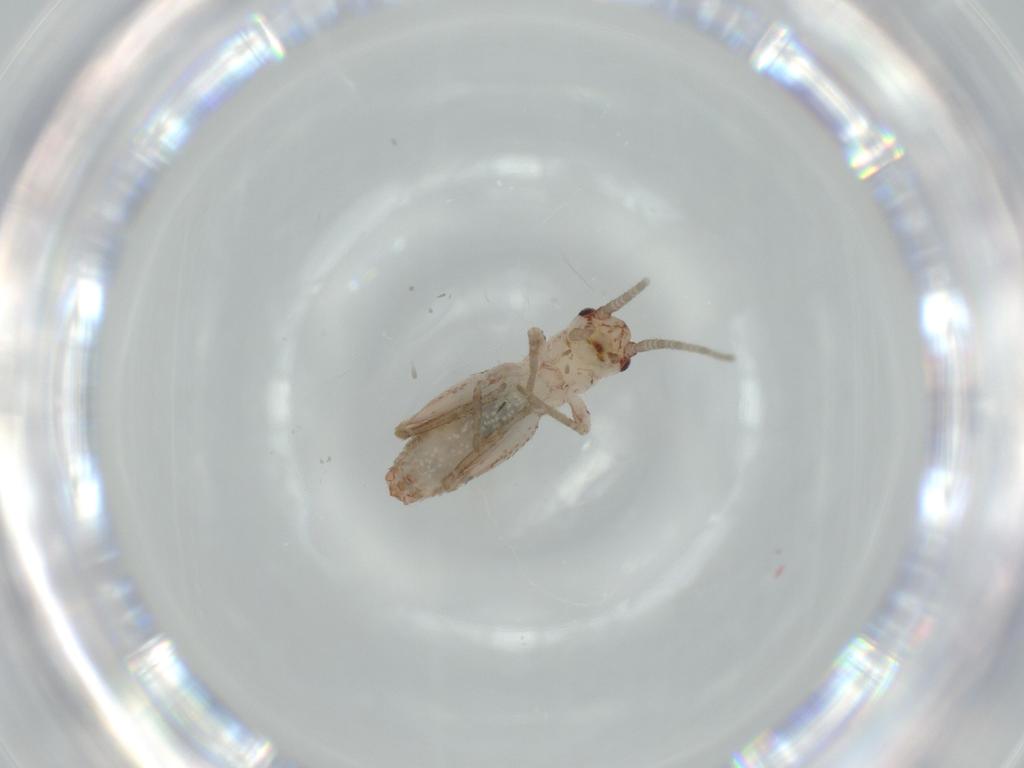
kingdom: Animalia
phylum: Arthropoda
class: Insecta
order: Orthoptera
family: Mogoplistidae
